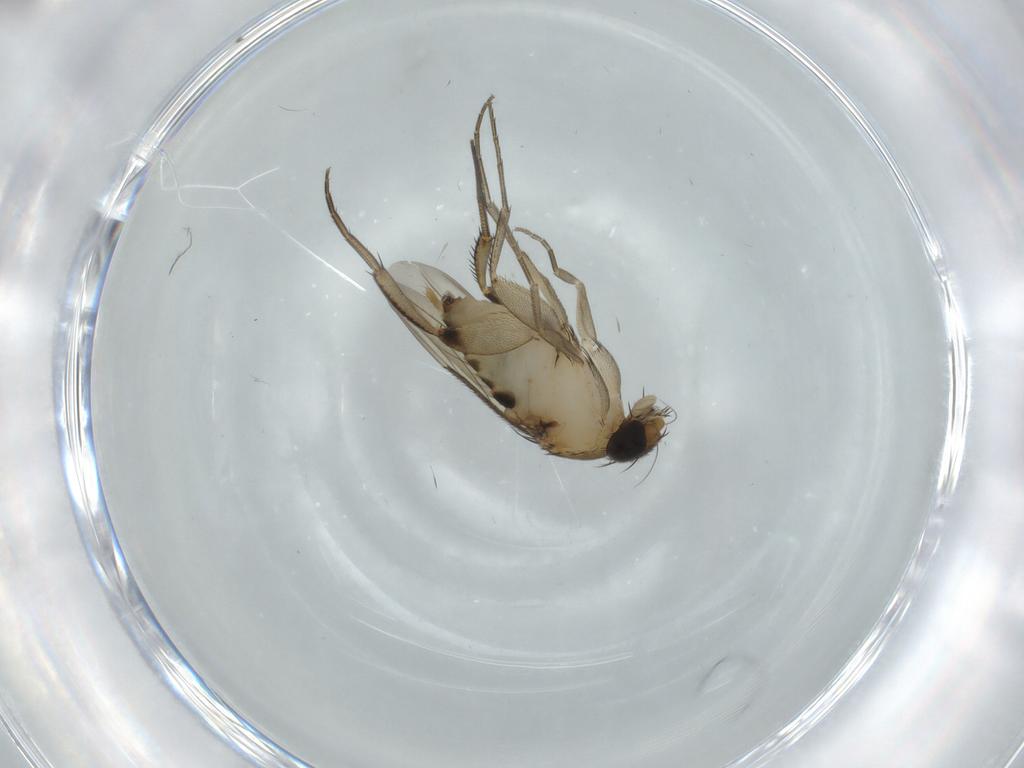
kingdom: Animalia
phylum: Arthropoda
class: Insecta
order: Diptera
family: Phoridae
